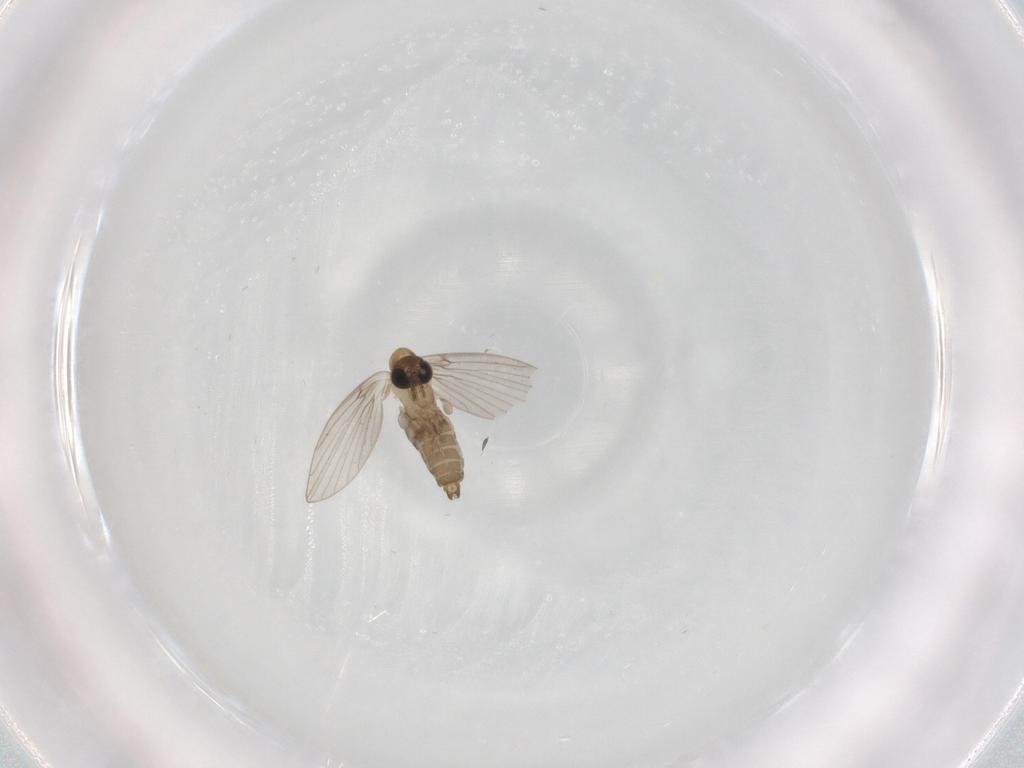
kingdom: Animalia
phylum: Arthropoda
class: Insecta
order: Diptera
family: Psychodidae
